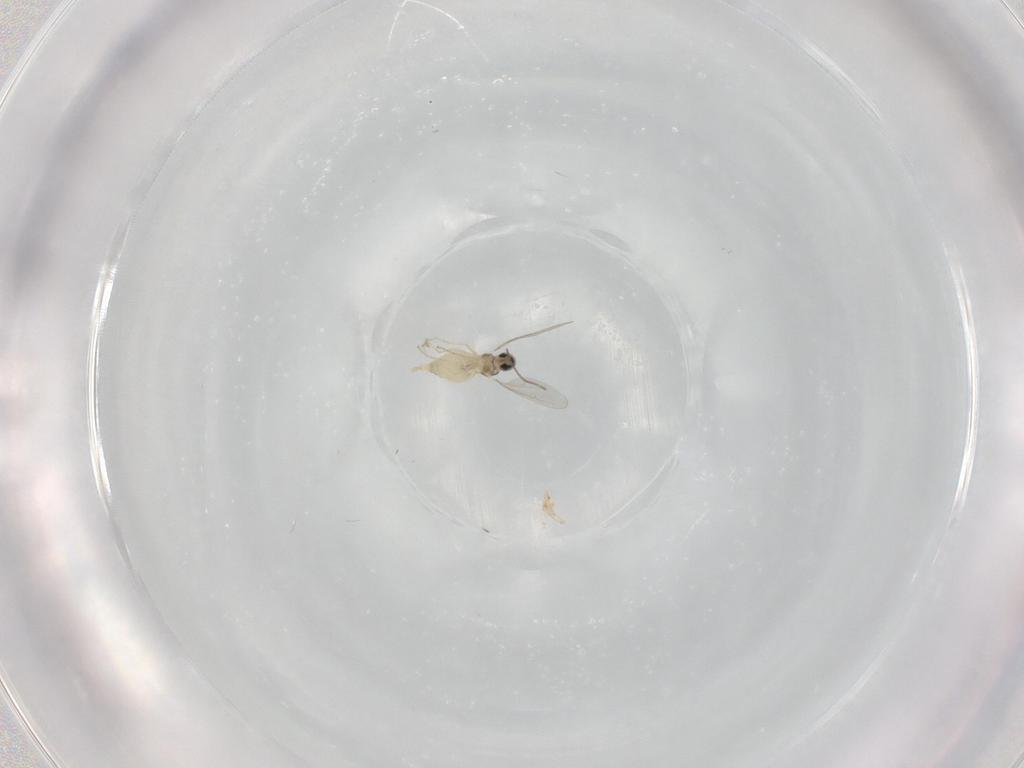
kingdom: Animalia
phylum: Arthropoda
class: Insecta
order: Diptera
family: Cecidomyiidae
